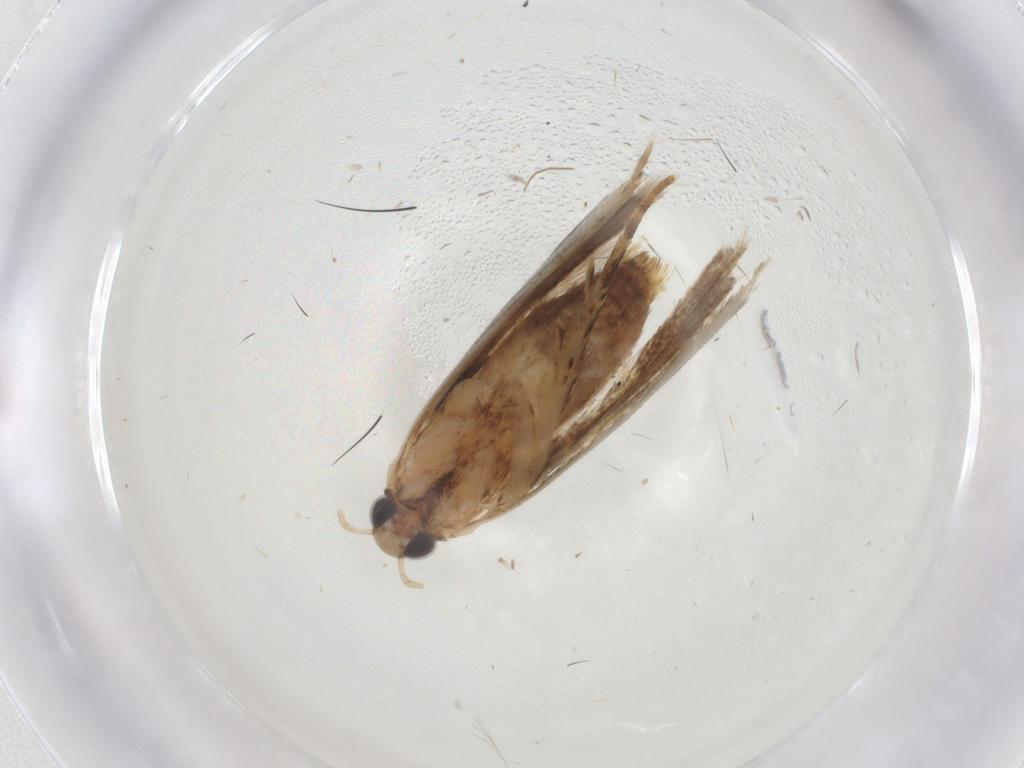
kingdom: Animalia
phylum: Arthropoda
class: Insecta
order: Lepidoptera
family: Gelechiidae
